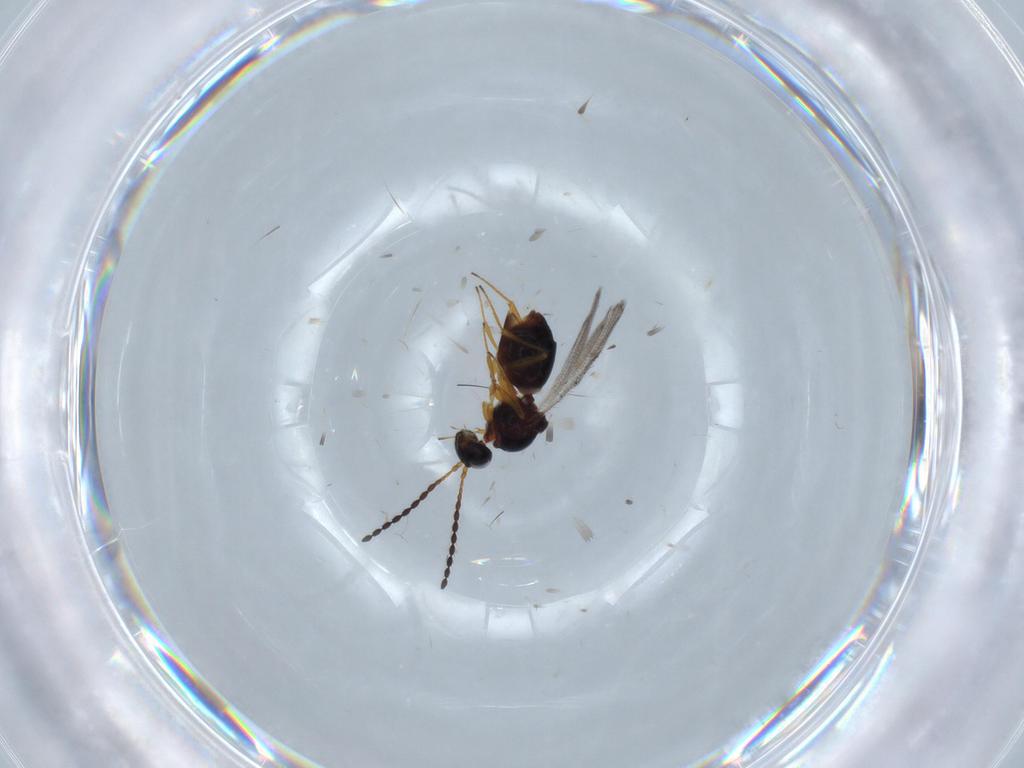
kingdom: Animalia
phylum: Arthropoda
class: Insecta
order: Hymenoptera
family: Figitidae
